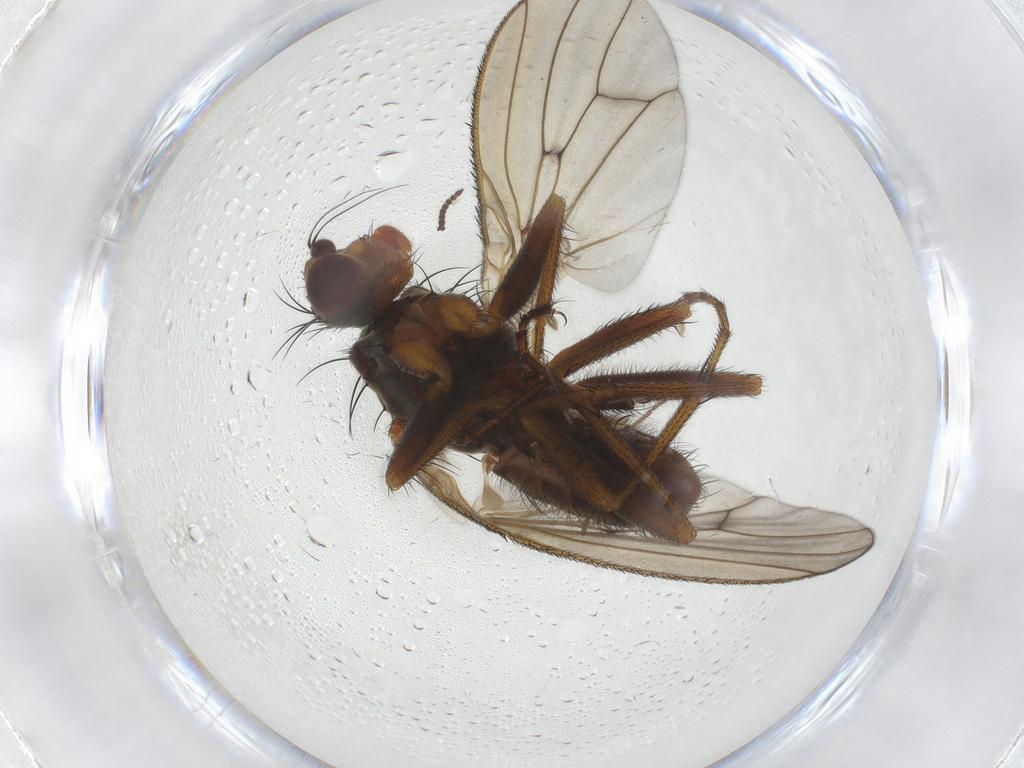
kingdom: Animalia
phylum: Arthropoda
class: Insecta
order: Diptera
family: Heleomyzidae
